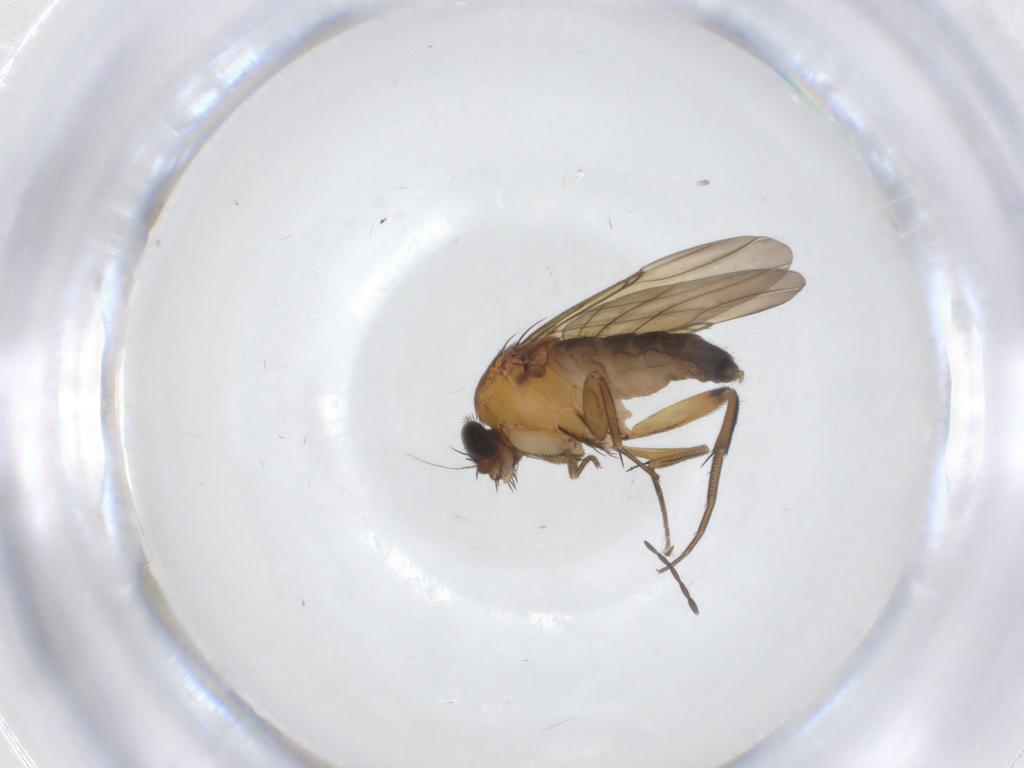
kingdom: Animalia
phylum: Arthropoda
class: Insecta
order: Diptera
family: Phoridae
